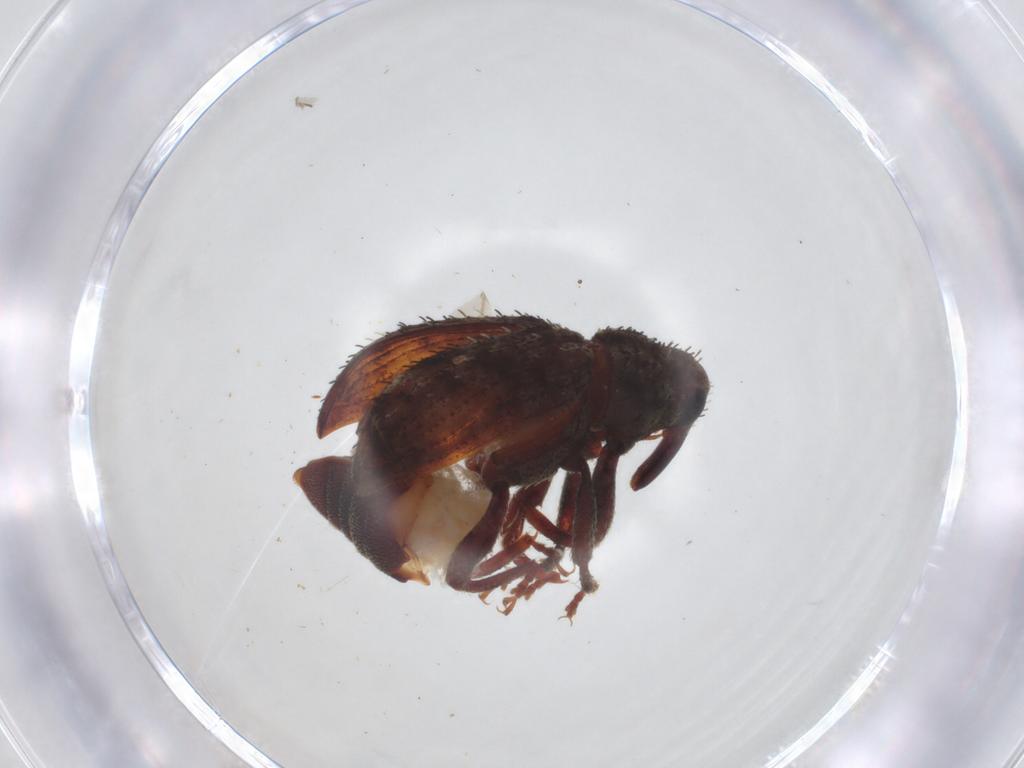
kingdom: Animalia
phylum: Arthropoda
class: Insecta
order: Coleoptera
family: Curculionidae
